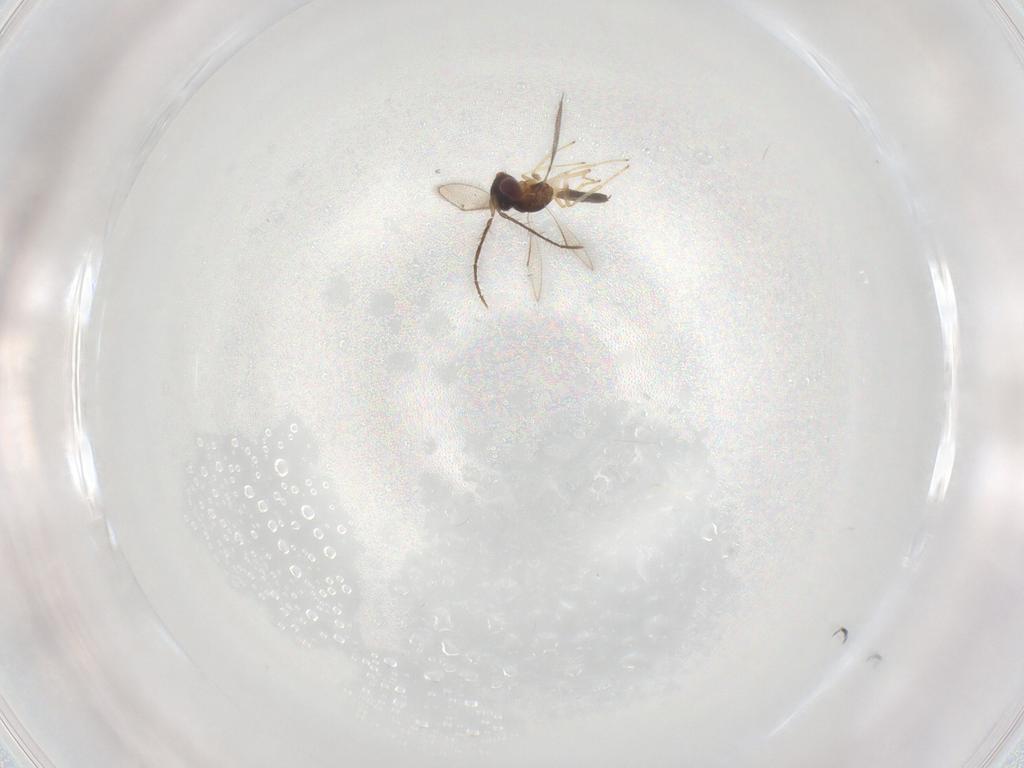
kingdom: Animalia
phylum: Arthropoda
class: Insecta
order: Hymenoptera
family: Eulophidae
